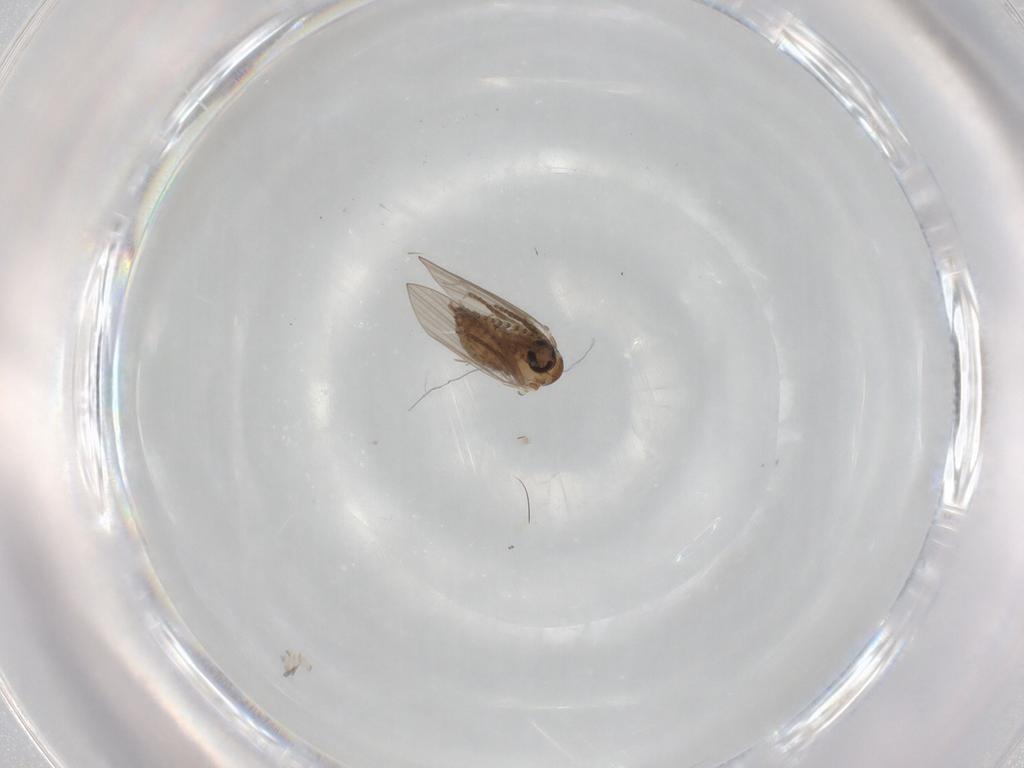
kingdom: Animalia
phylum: Arthropoda
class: Insecta
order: Diptera
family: Psychodidae
